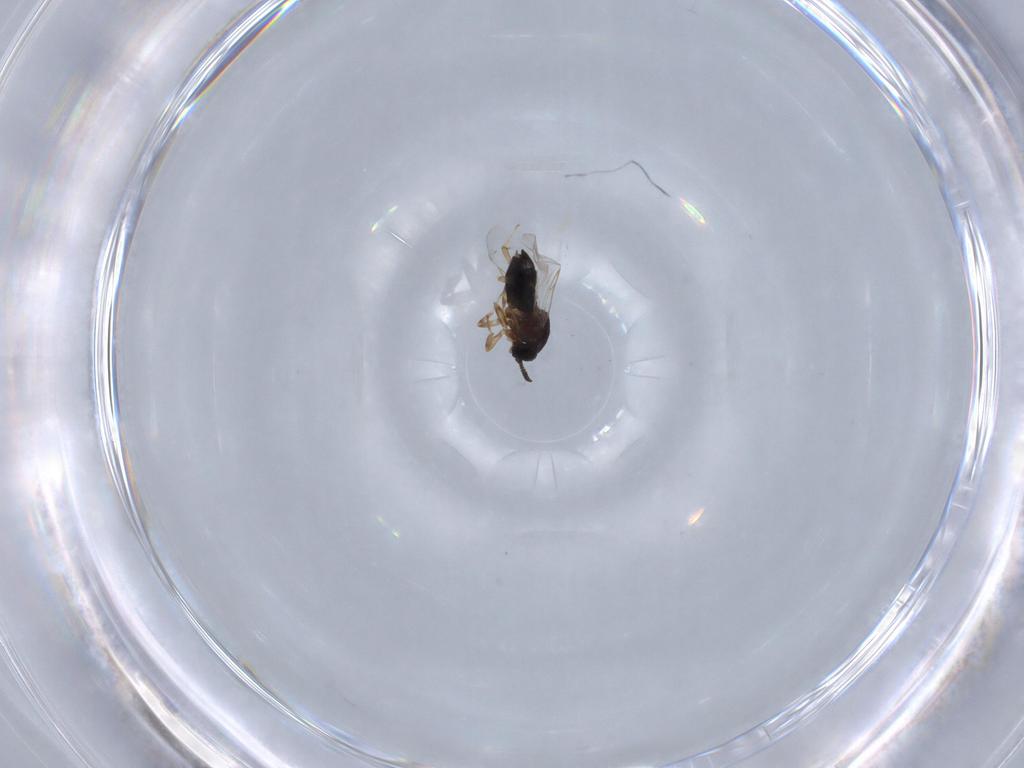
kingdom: Animalia
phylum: Arthropoda
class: Insecta
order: Diptera
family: Scatopsidae
